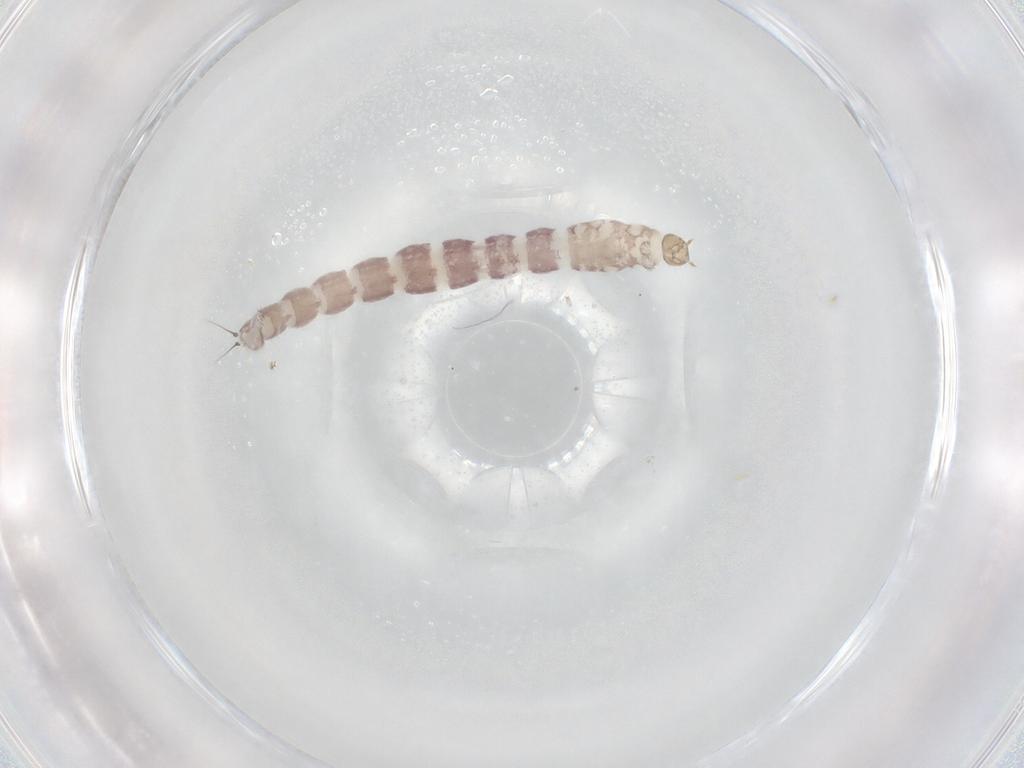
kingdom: Animalia
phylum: Arthropoda
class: Insecta
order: Diptera
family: Chironomidae
